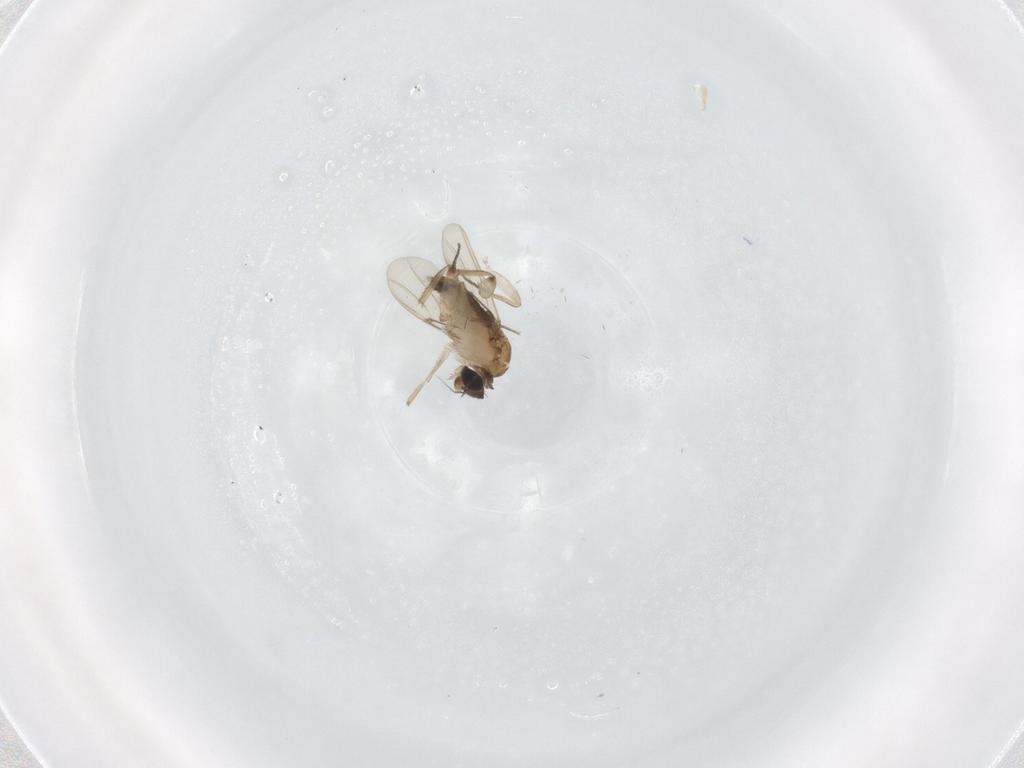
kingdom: Animalia
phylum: Arthropoda
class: Insecta
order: Diptera
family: Phoridae
